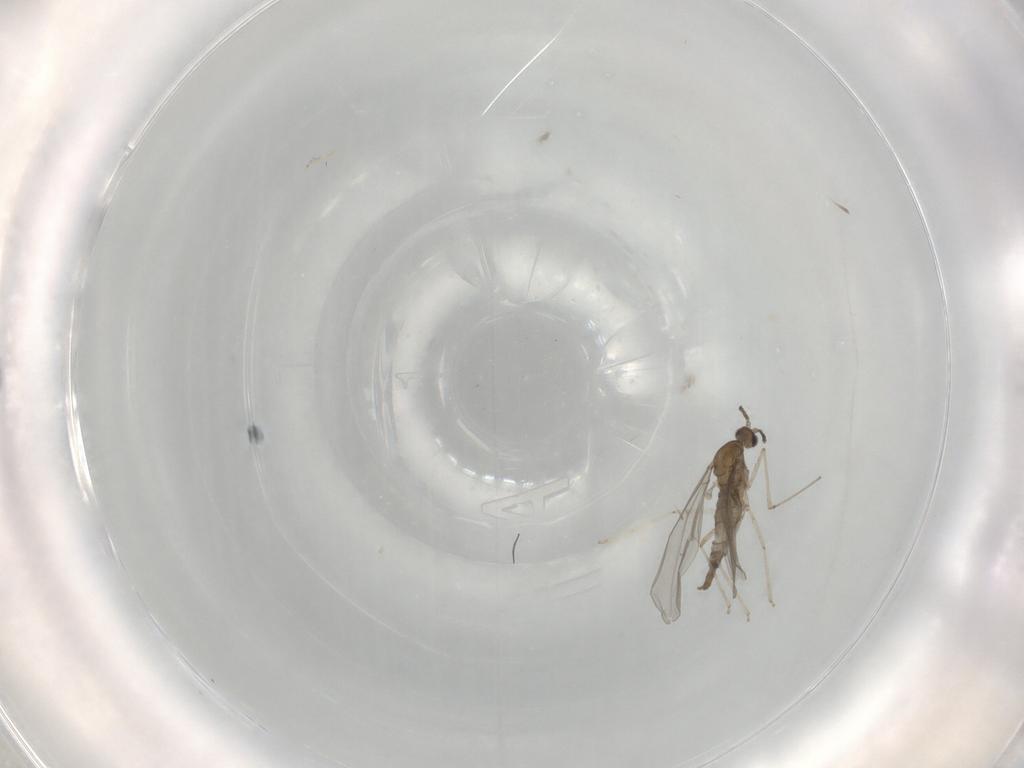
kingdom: Animalia
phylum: Arthropoda
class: Insecta
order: Diptera
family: Cecidomyiidae
